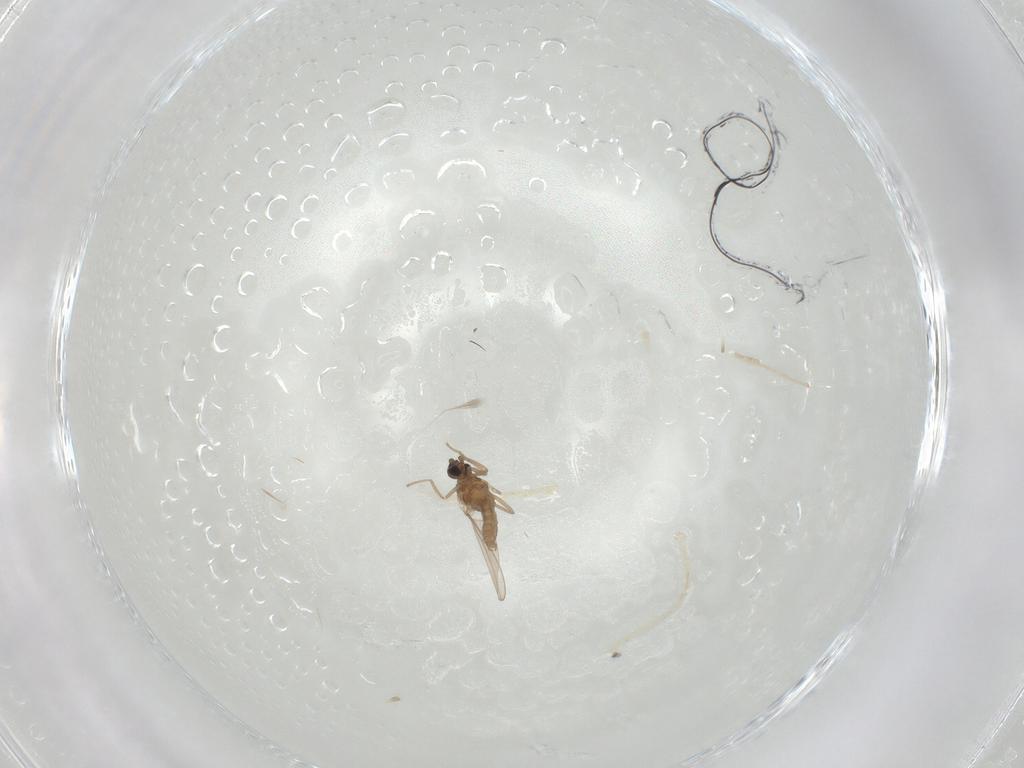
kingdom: Animalia
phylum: Arthropoda
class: Insecta
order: Diptera
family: Cecidomyiidae
